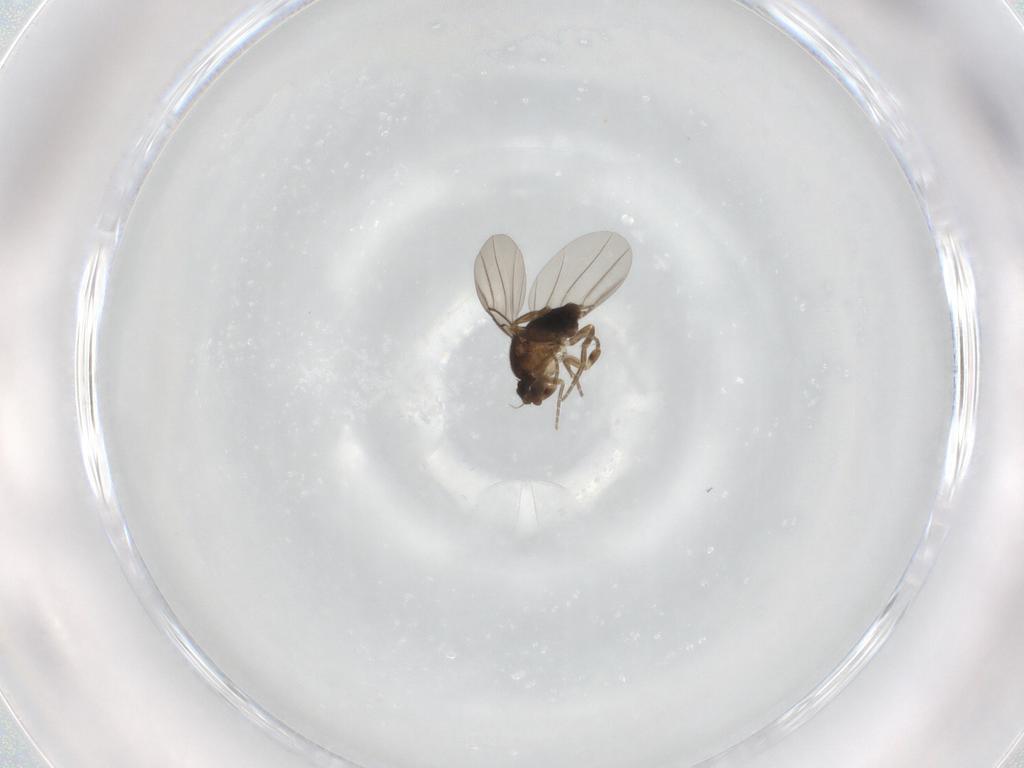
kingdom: Animalia
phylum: Arthropoda
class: Insecta
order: Diptera
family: Phoridae
